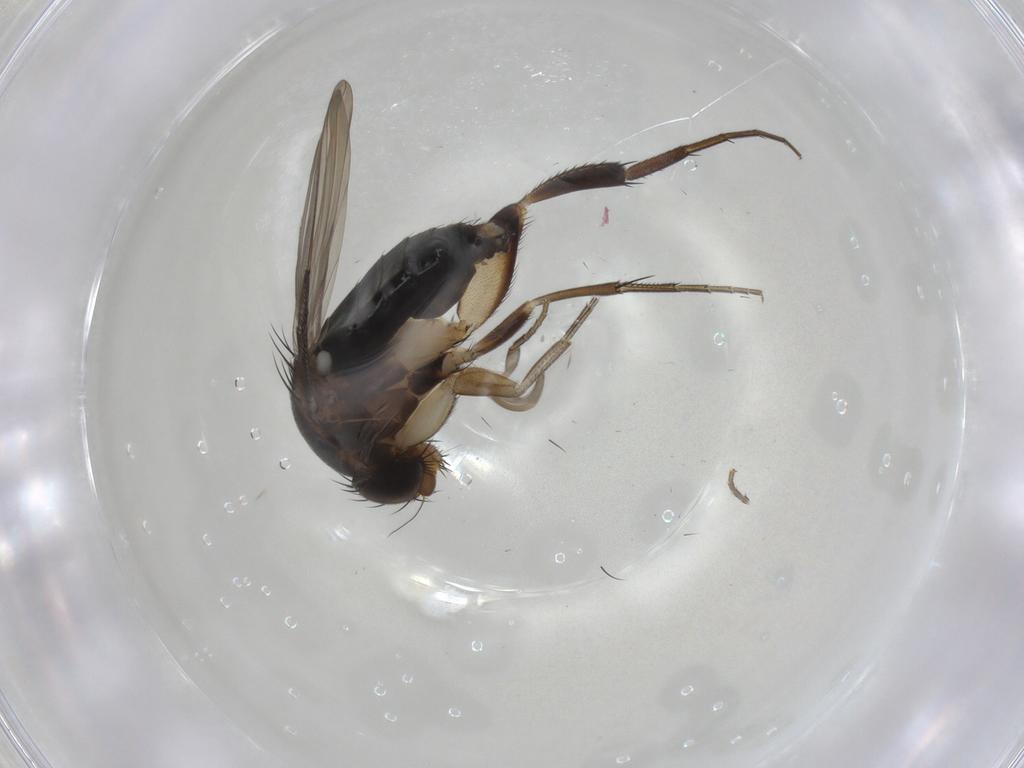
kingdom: Animalia
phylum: Arthropoda
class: Insecta
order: Diptera
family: Phoridae
